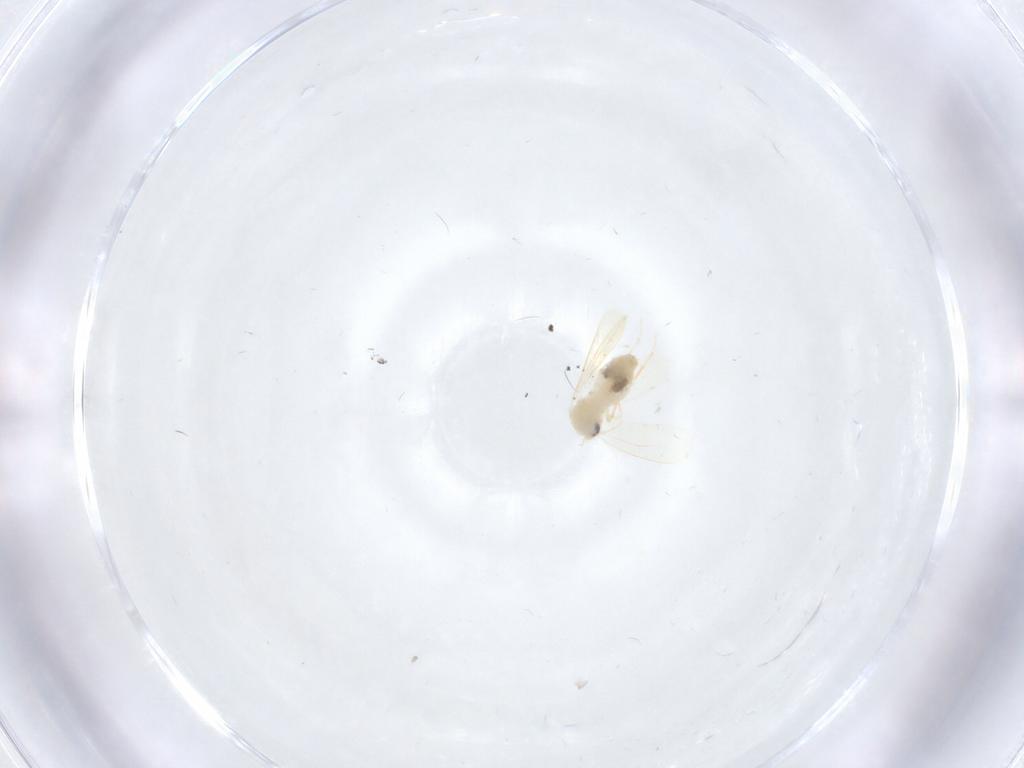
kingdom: Animalia
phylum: Arthropoda
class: Insecta
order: Hemiptera
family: Aleyrodidae
